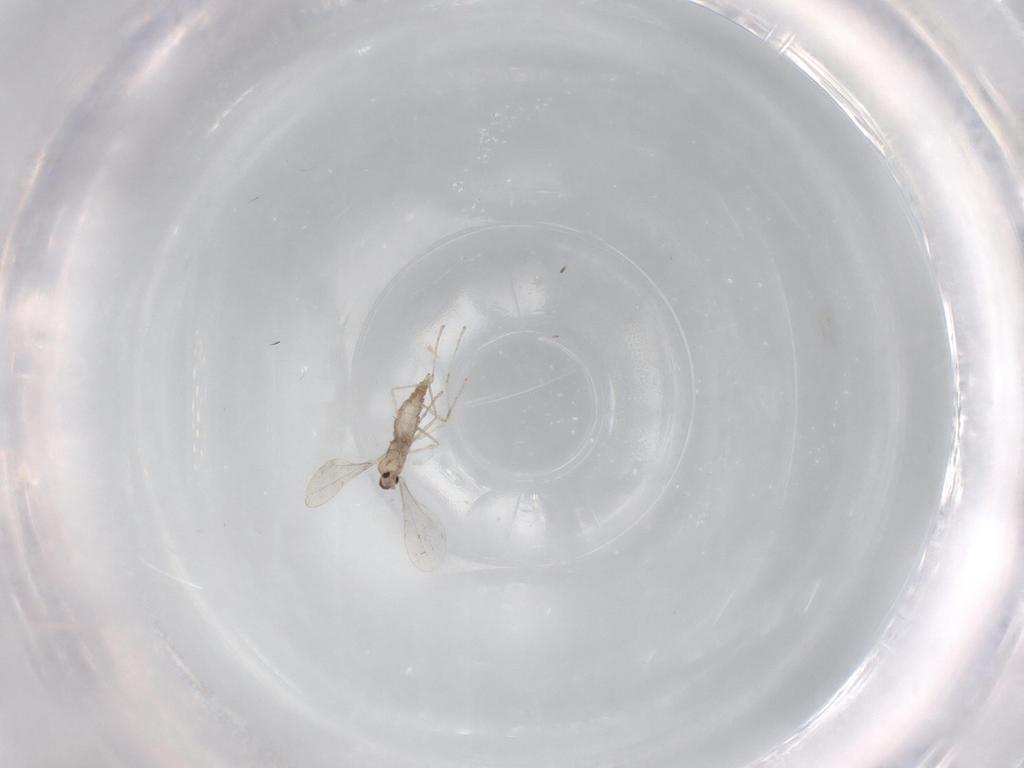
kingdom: Animalia
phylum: Arthropoda
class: Insecta
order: Diptera
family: Cecidomyiidae
